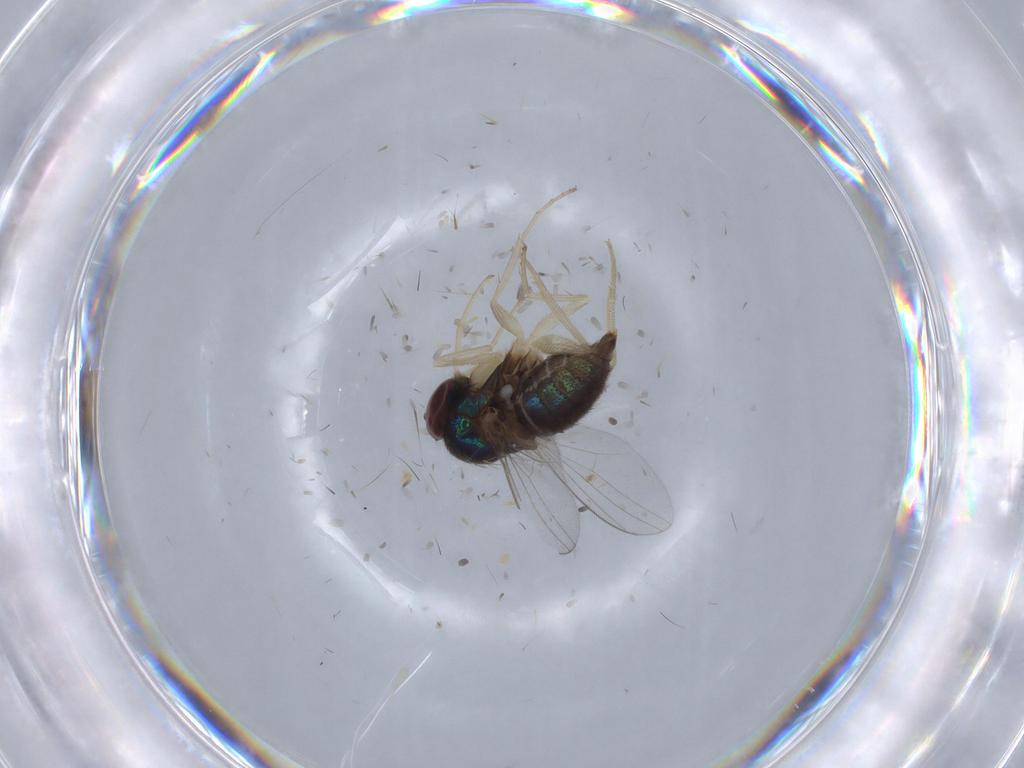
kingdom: Animalia
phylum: Arthropoda
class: Insecta
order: Diptera
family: Dolichopodidae
